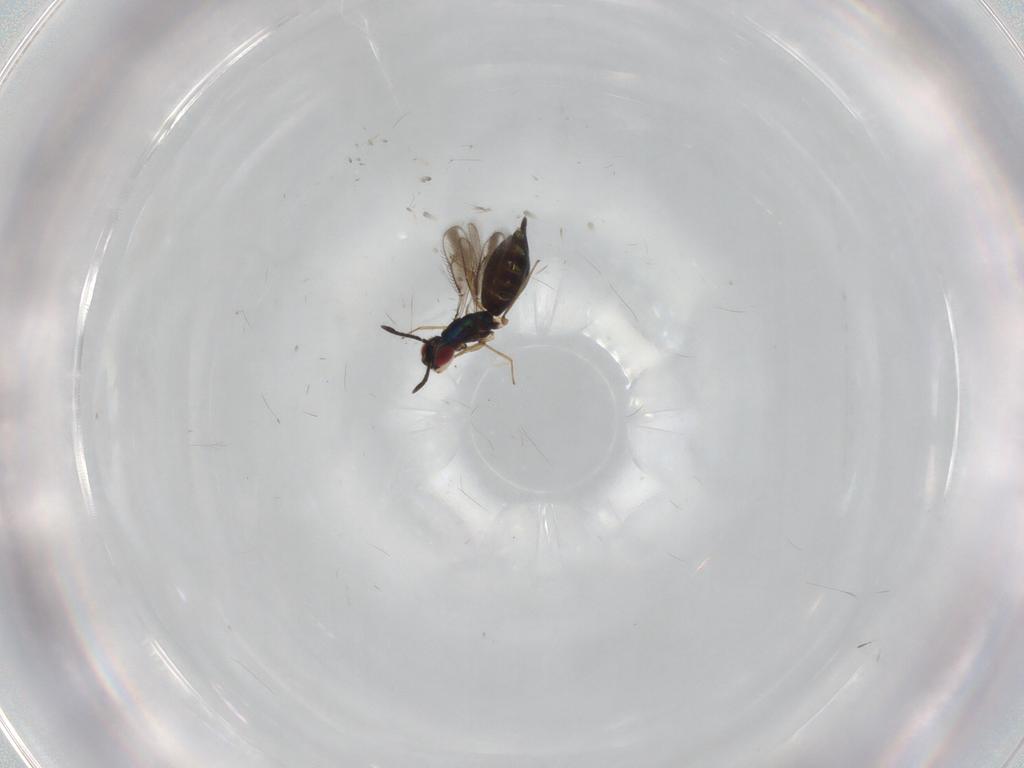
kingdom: Animalia
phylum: Arthropoda
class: Insecta
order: Hymenoptera
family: Pteromalidae
